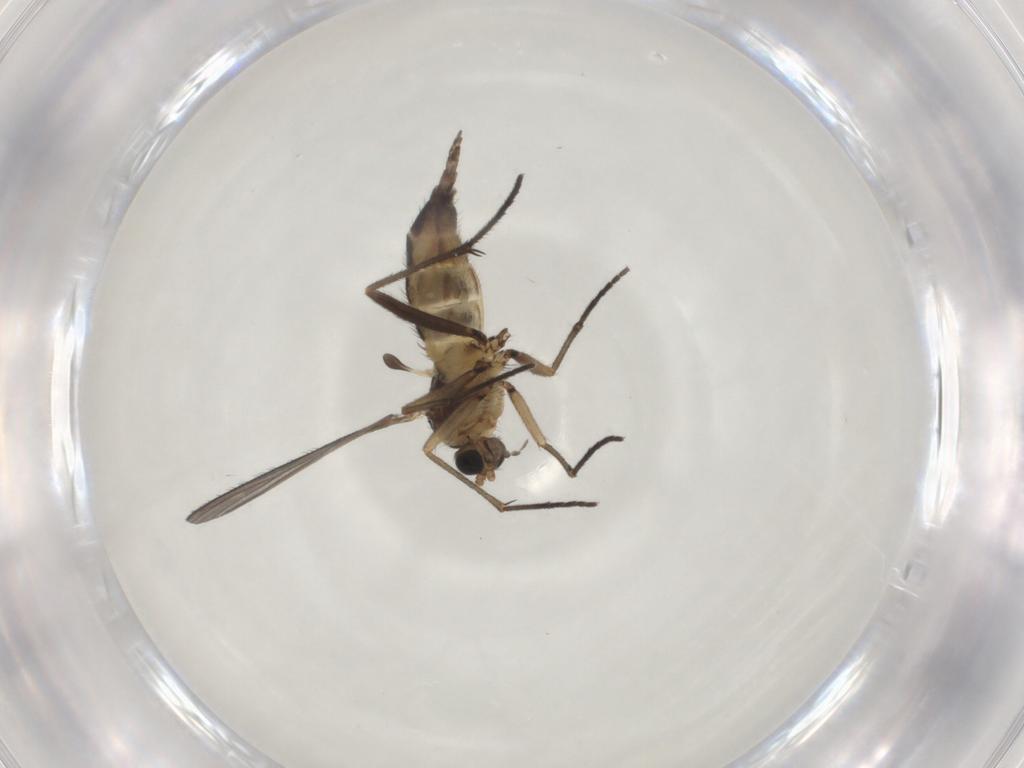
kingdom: Animalia
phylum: Arthropoda
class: Insecta
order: Diptera
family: Sciaridae
